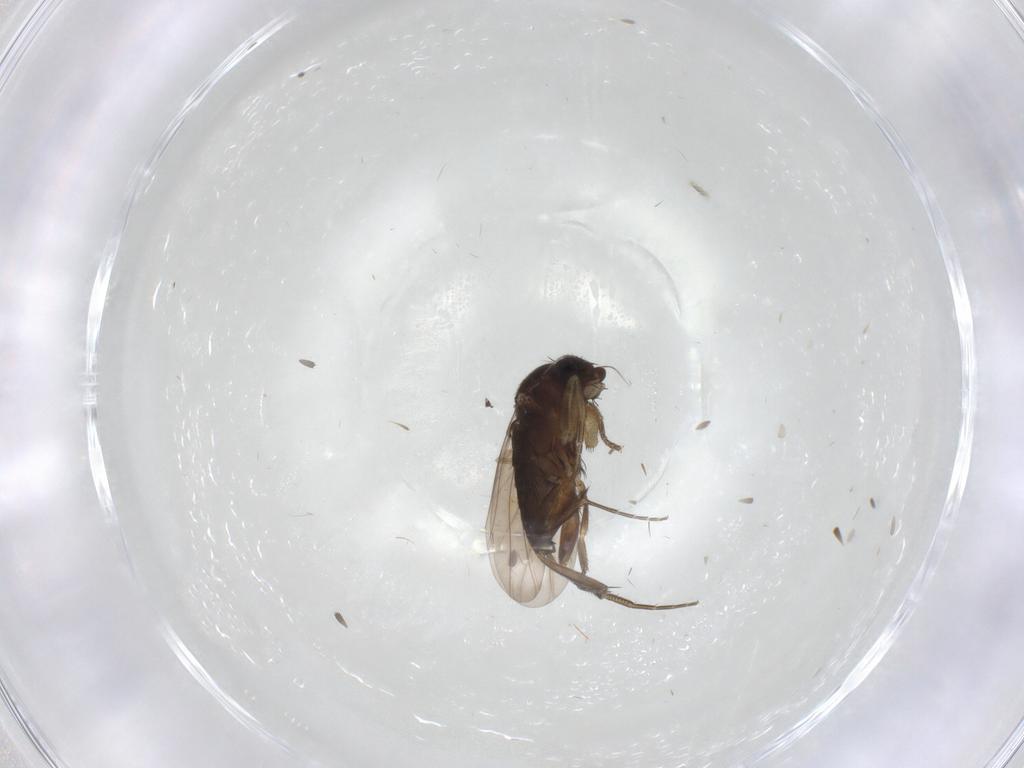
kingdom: Animalia
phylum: Arthropoda
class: Insecta
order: Diptera
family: Phoridae
